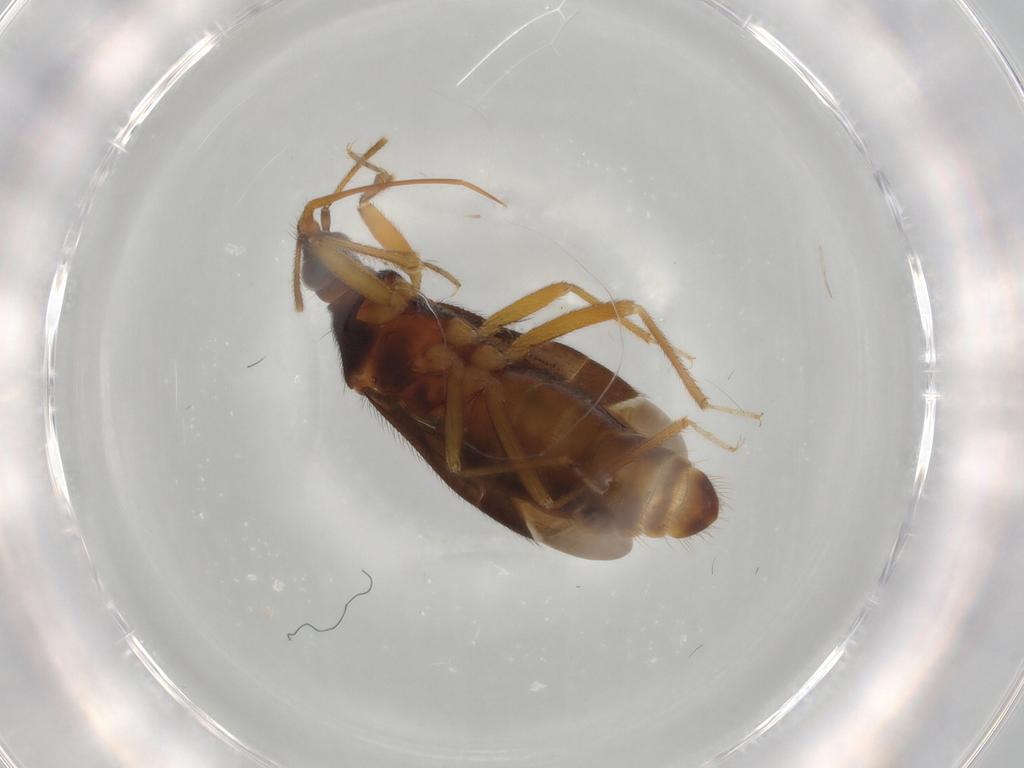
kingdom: Animalia
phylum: Arthropoda
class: Insecta
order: Hemiptera
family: Anthocoridae
